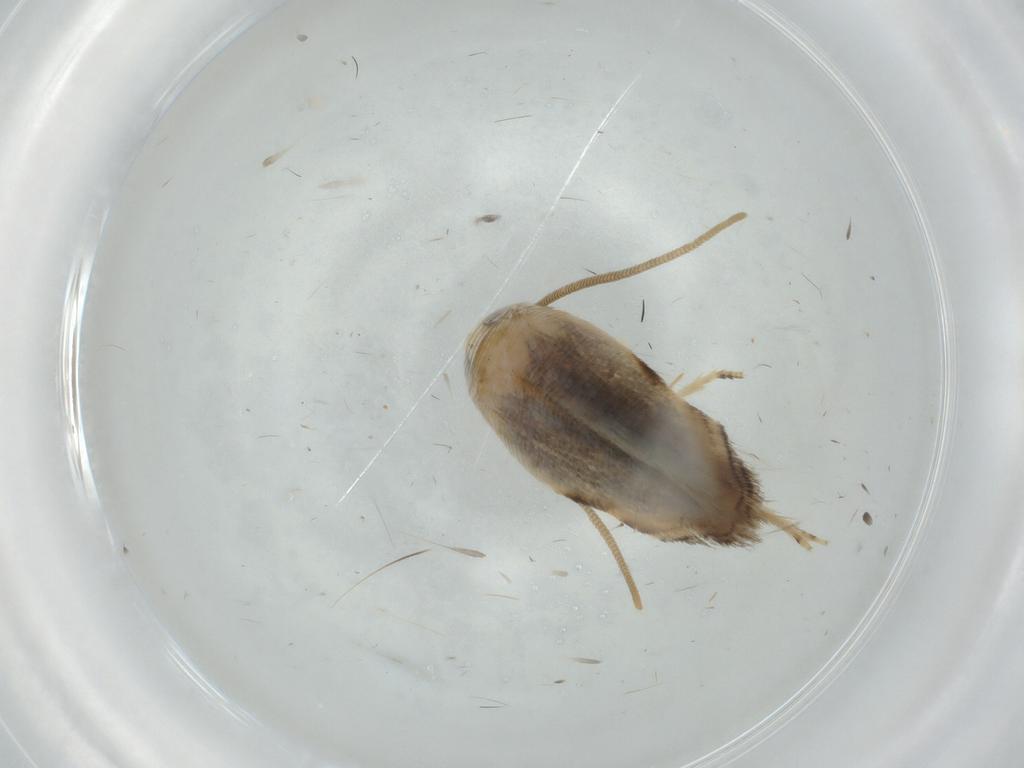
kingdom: Animalia
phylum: Arthropoda
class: Insecta
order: Lepidoptera
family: Opostegidae
